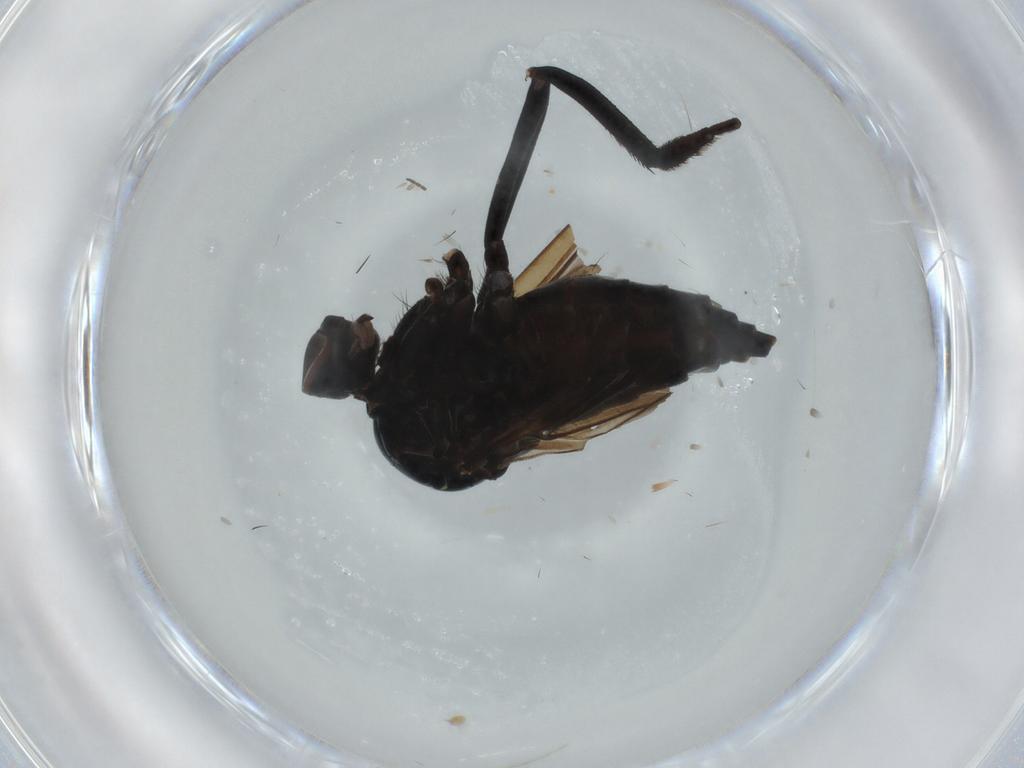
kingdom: Animalia
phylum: Arthropoda
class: Insecta
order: Diptera
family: Empididae
